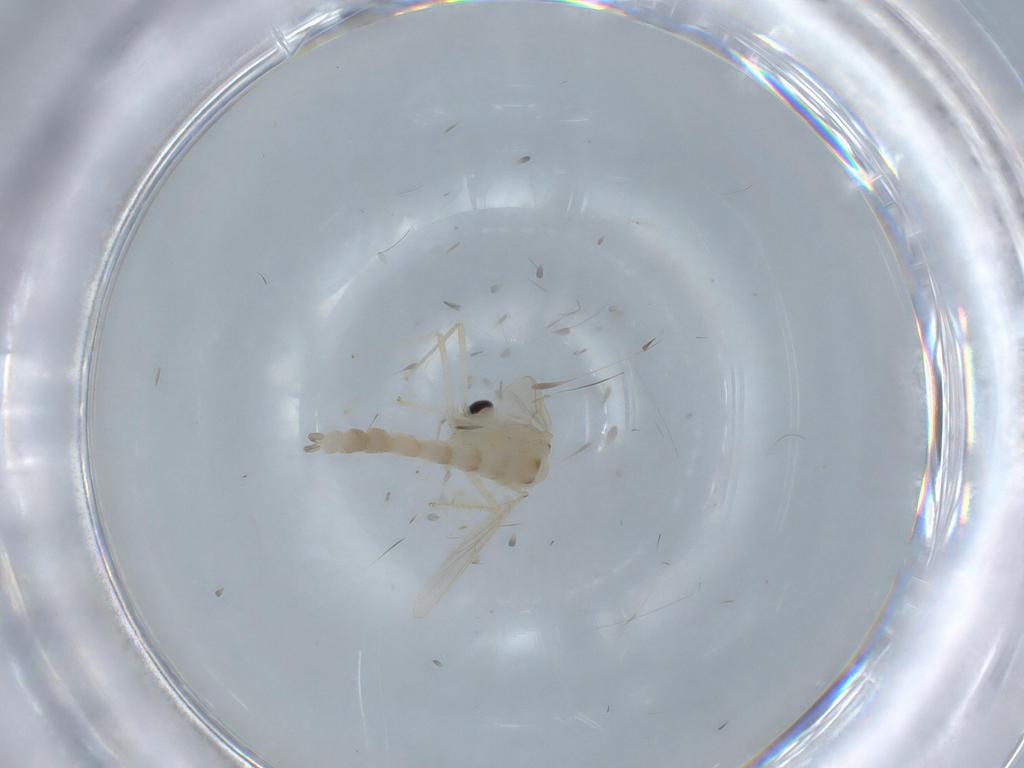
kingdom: Animalia
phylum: Arthropoda
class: Insecta
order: Diptera
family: Chironomidae
